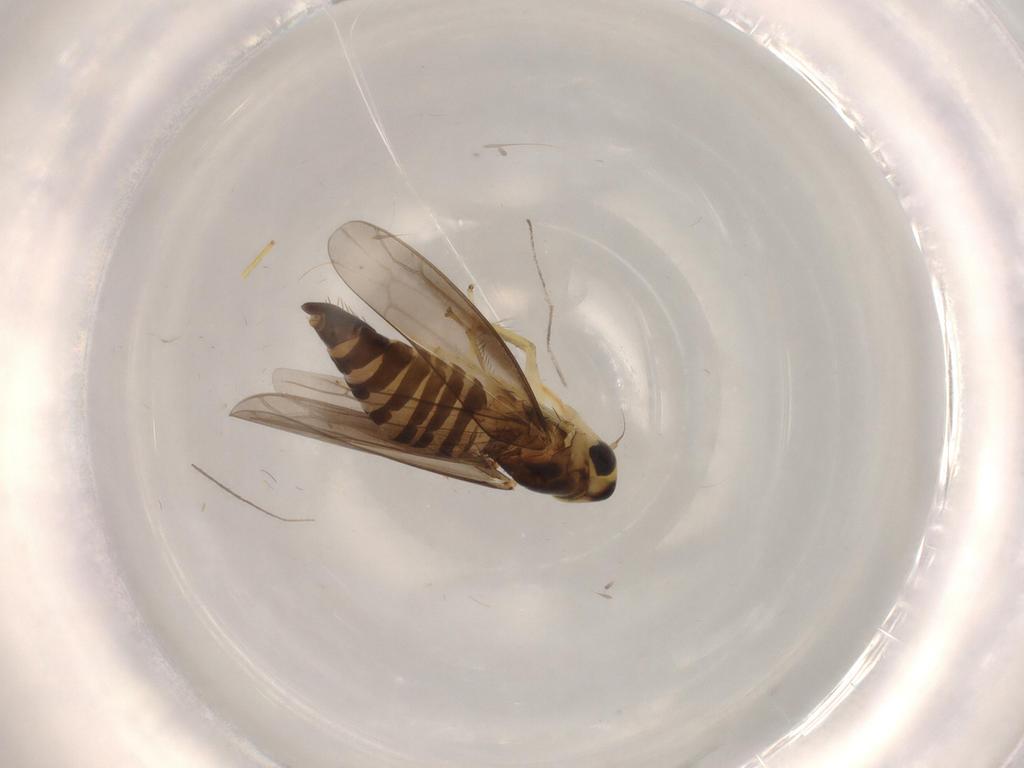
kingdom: Animalia
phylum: Arthropoda
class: Insecta
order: Hemiptera
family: Cicadellidae
